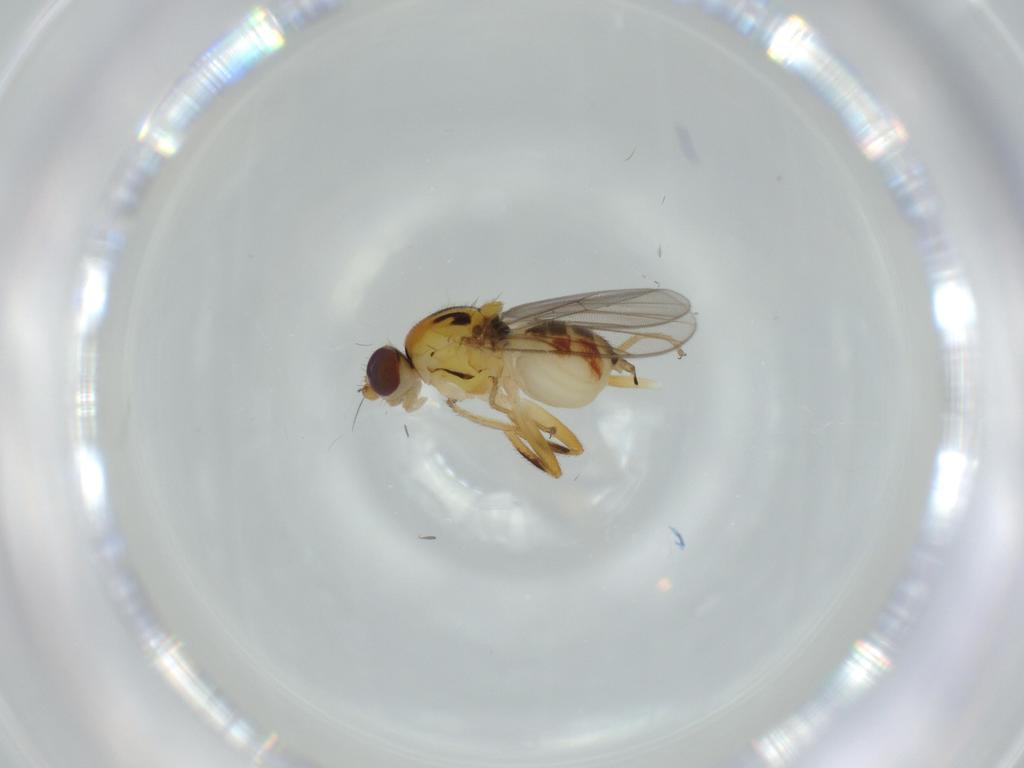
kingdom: Animalia
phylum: Arthropoda
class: Insecta
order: Diptera
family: Chloropidae
